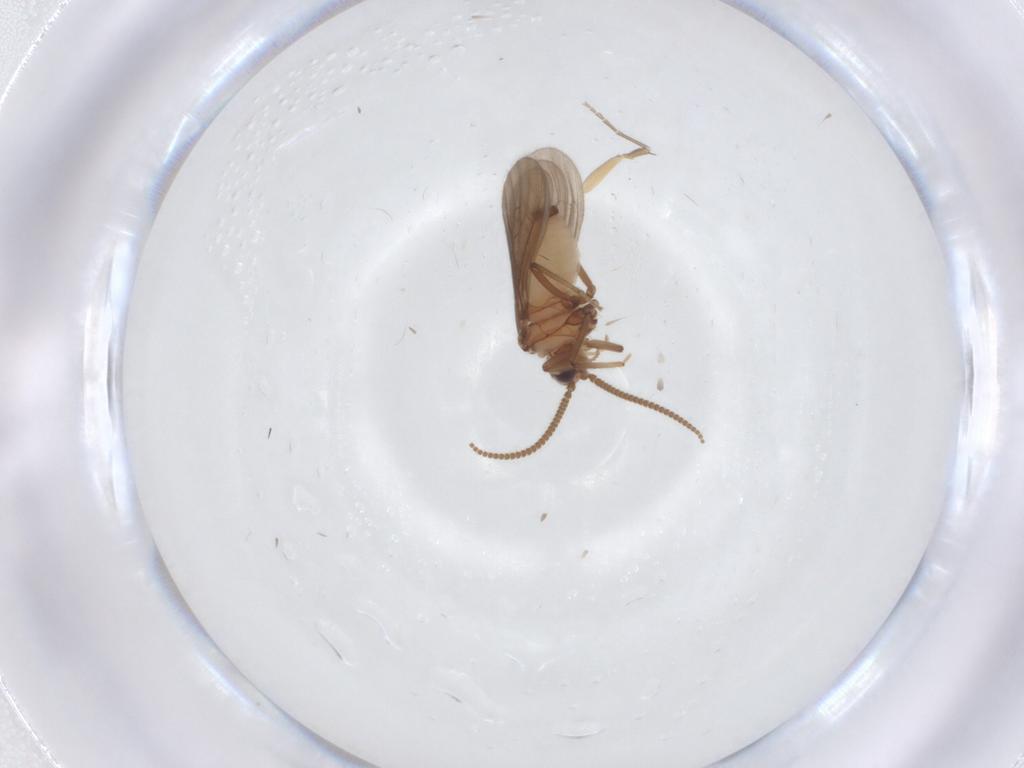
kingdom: Animalia
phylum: Arthropoda
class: Insecta
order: Neuroptera
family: Coniopterygidae
